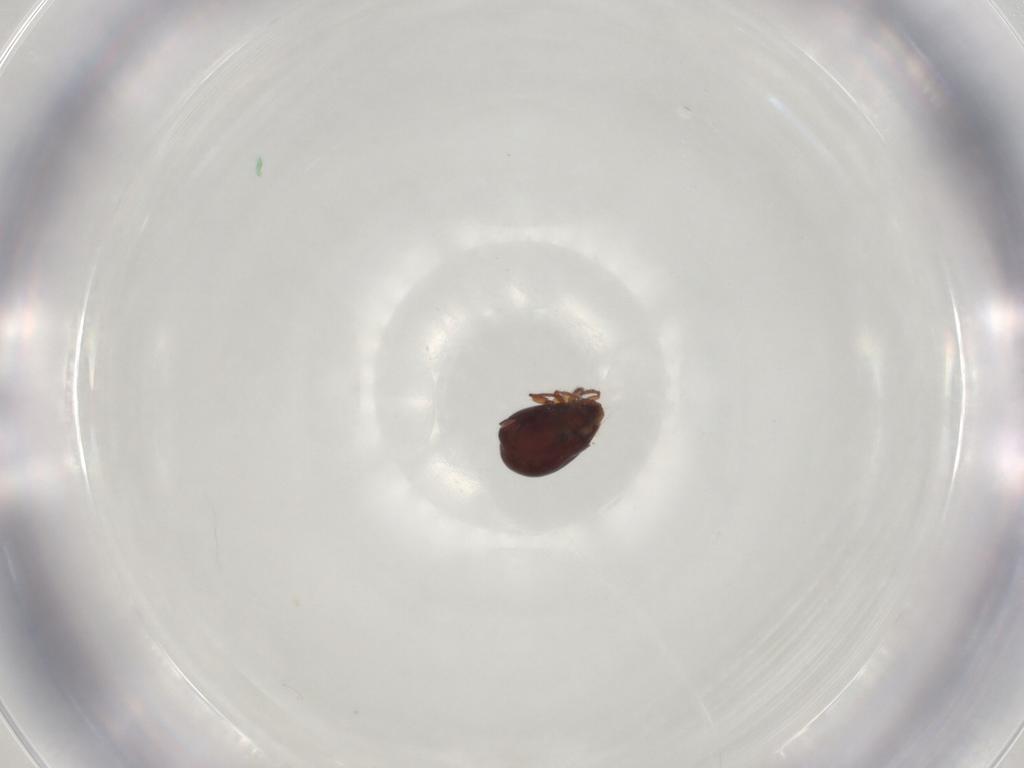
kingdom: Animalia
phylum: Arthropoda
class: Arachnida
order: Sarcoptiformes
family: Humerobatidae
